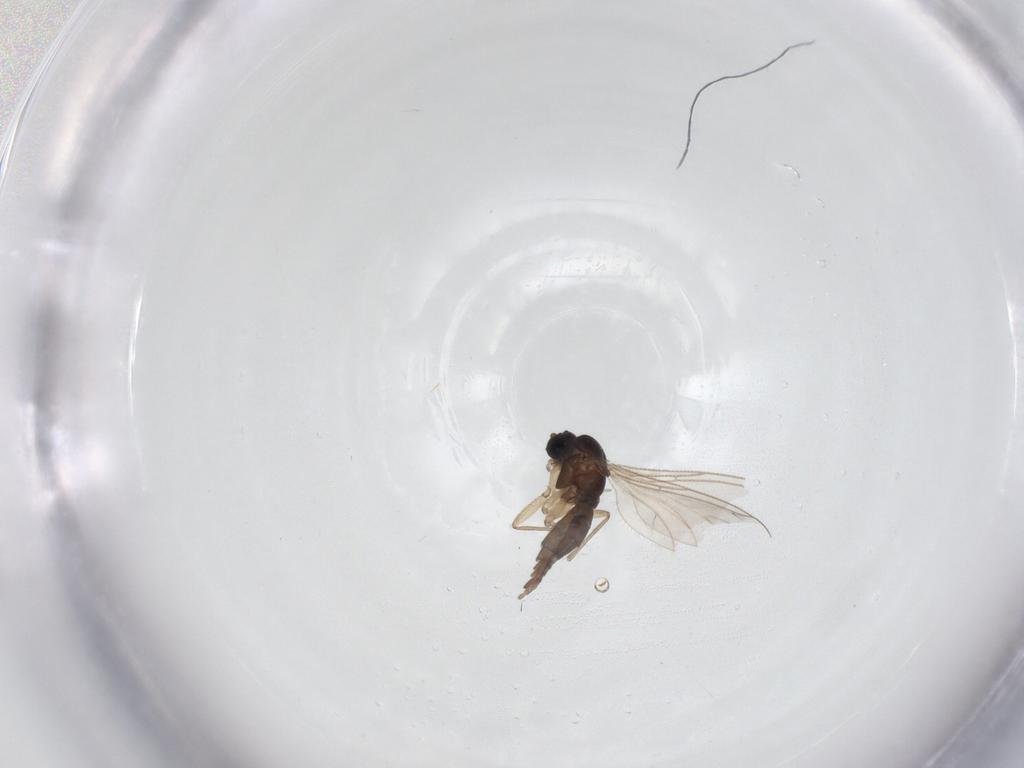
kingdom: Animalia
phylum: Arthropoda
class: Insecta
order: Diptera
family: Sciaridae
